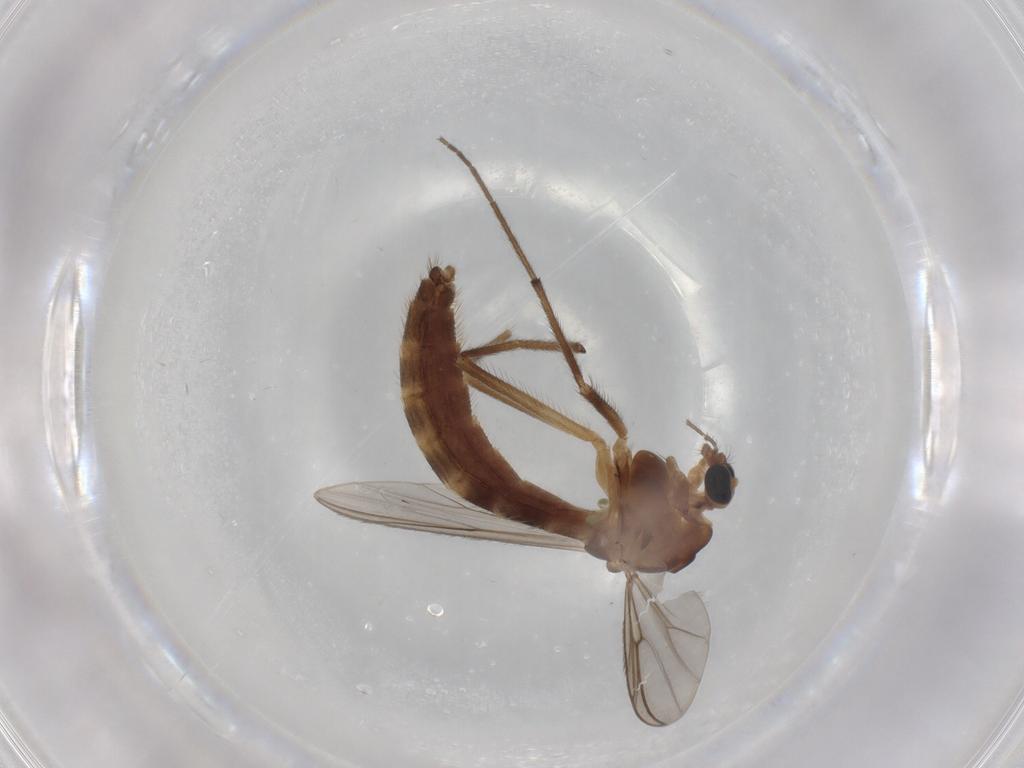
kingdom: Animalia
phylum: Arthropoda
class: Insecta
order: Diptera
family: Chironomidae
